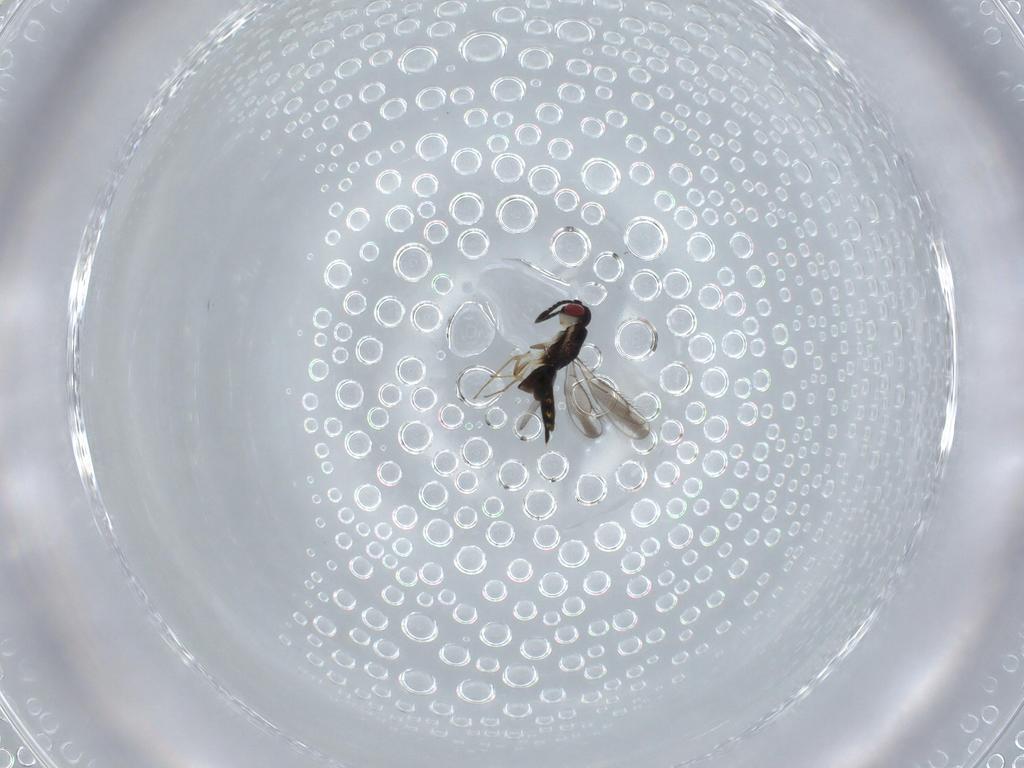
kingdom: Animalia
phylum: Arthropoda
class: Insecta
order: Hymenoptera
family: Pteromalidae
